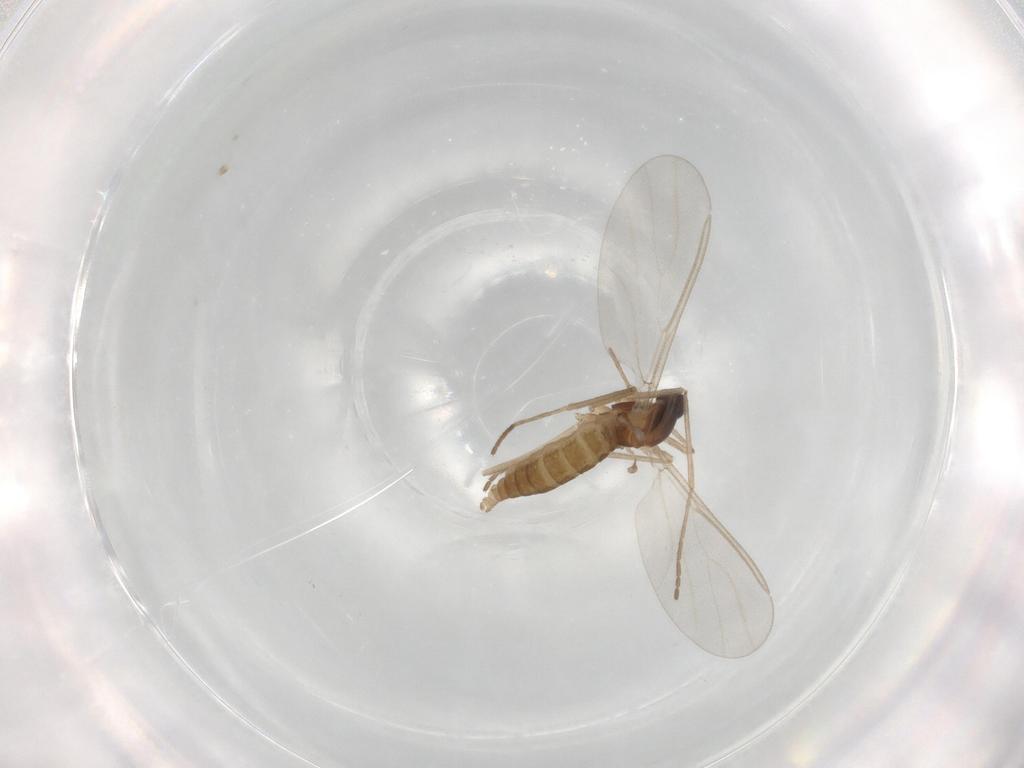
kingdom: Animalia
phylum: Arthropoda
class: Insecta
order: Diptera
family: Cecidomyiidae
